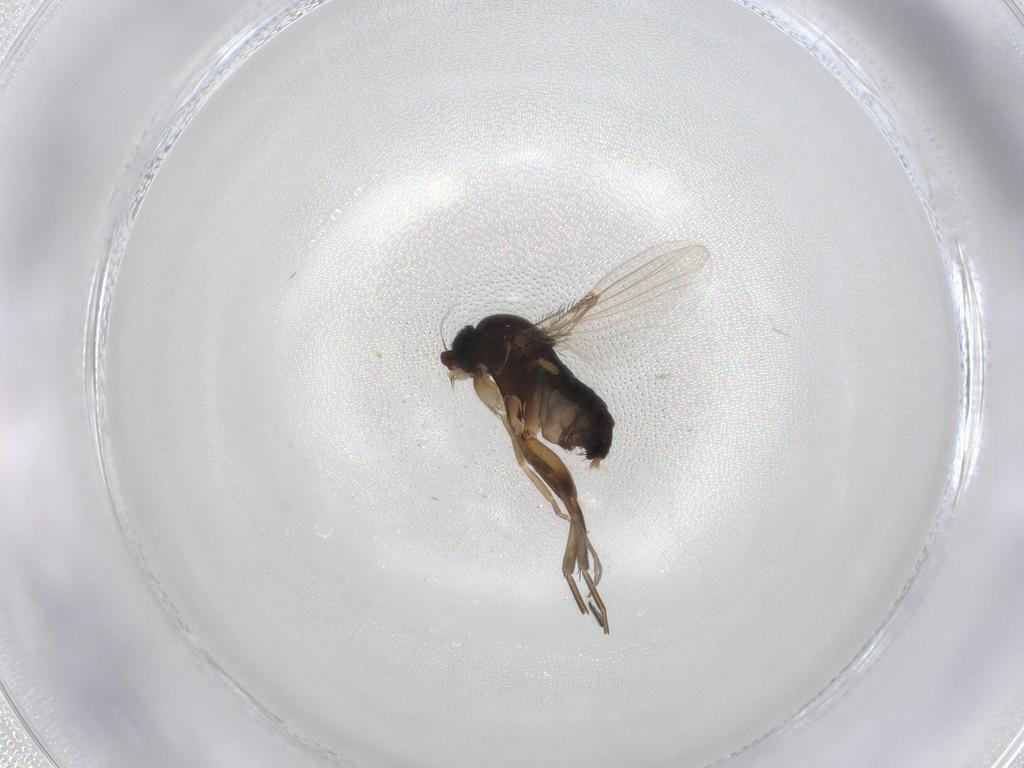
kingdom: Animalia
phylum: Arthropoda
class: Insecta
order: Diptera
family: Phoridae
